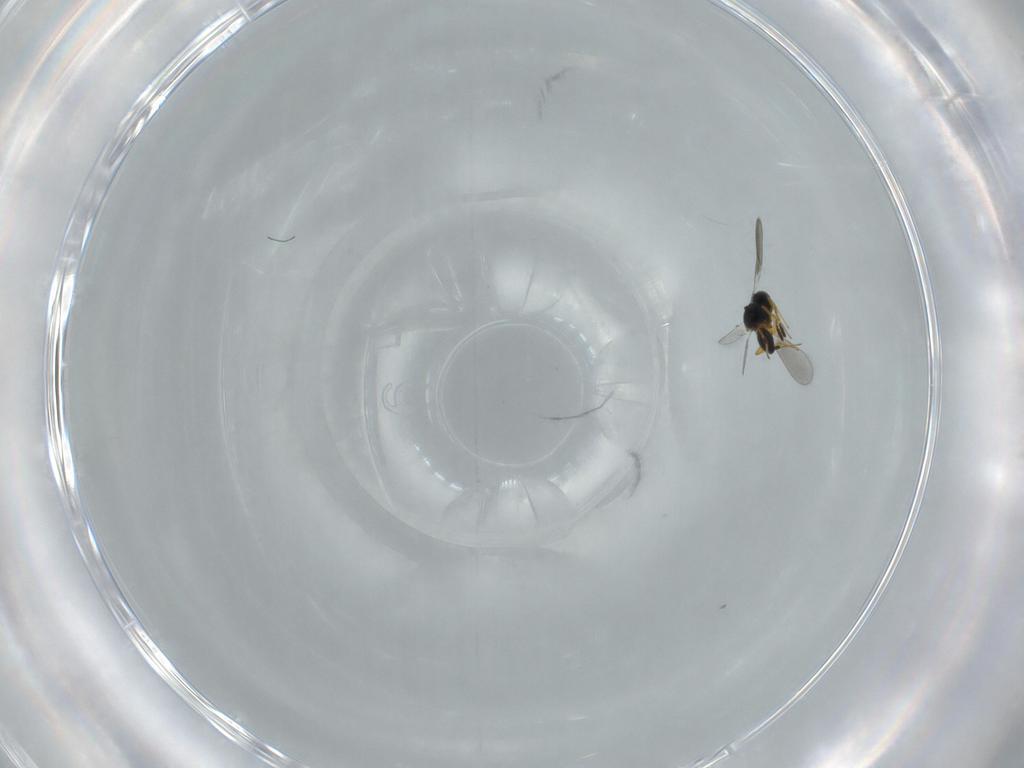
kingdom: Animalia
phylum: Arthropoda
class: Insecta
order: Hymenoptera
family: Platygastridae
